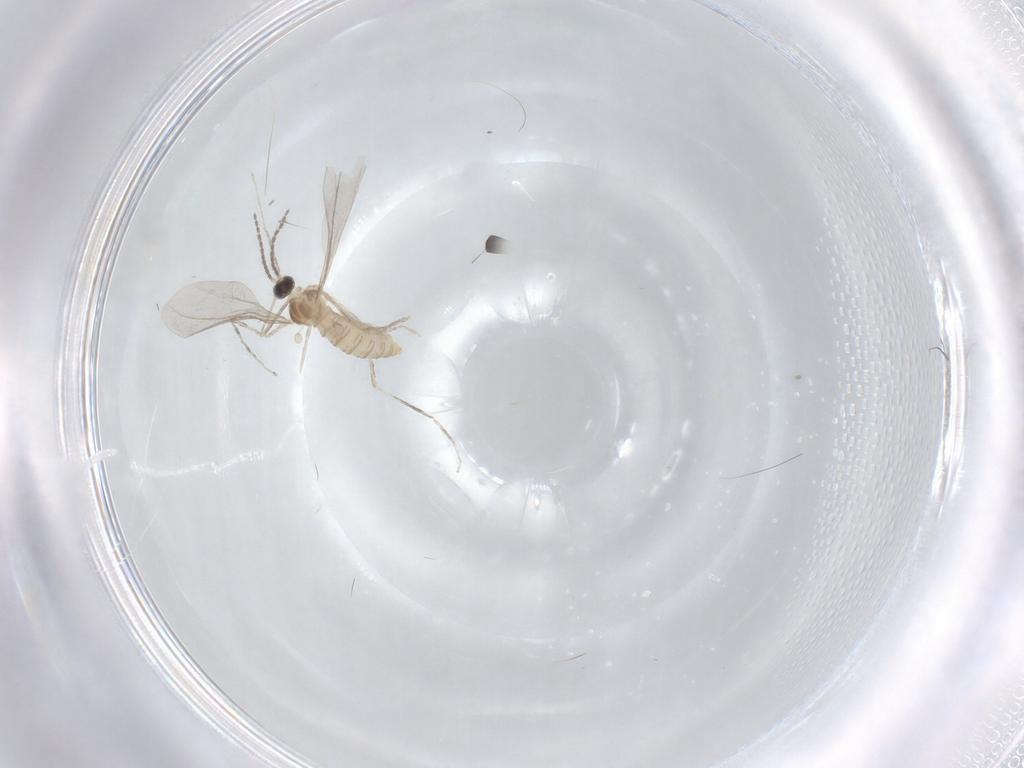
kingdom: Animalia
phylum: Arthropoda
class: Insecta
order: Diptera
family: Cecidomyiidae
